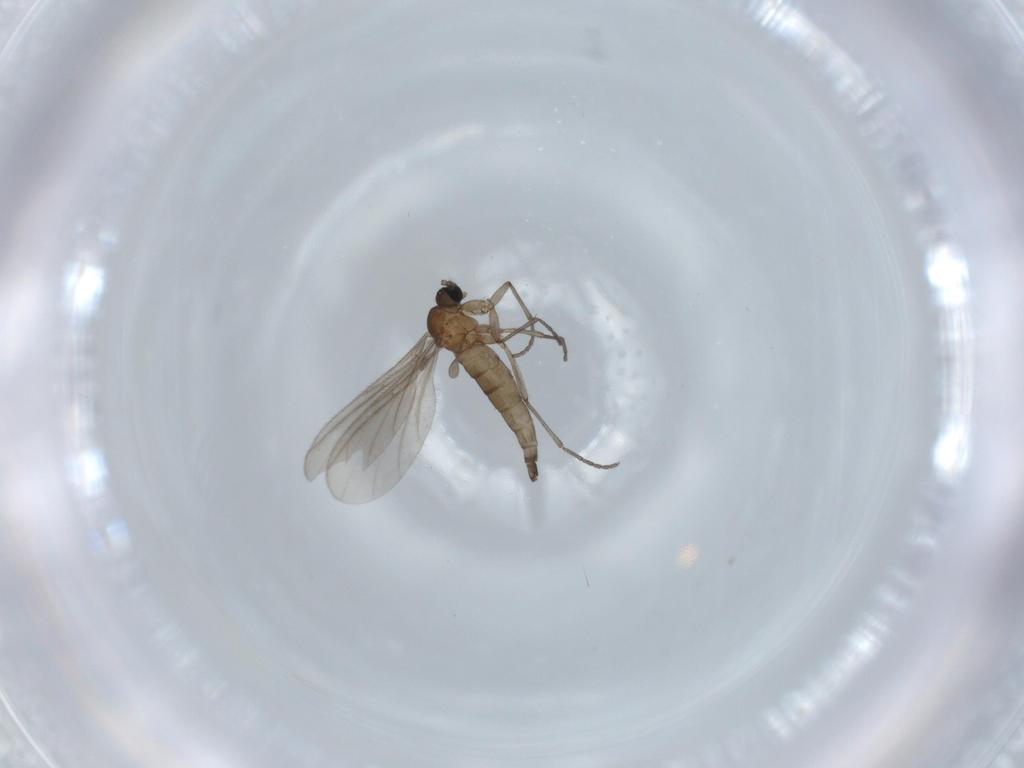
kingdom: Animalia
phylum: Arthropoda
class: Insecta
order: Diptera
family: Sciaridae
